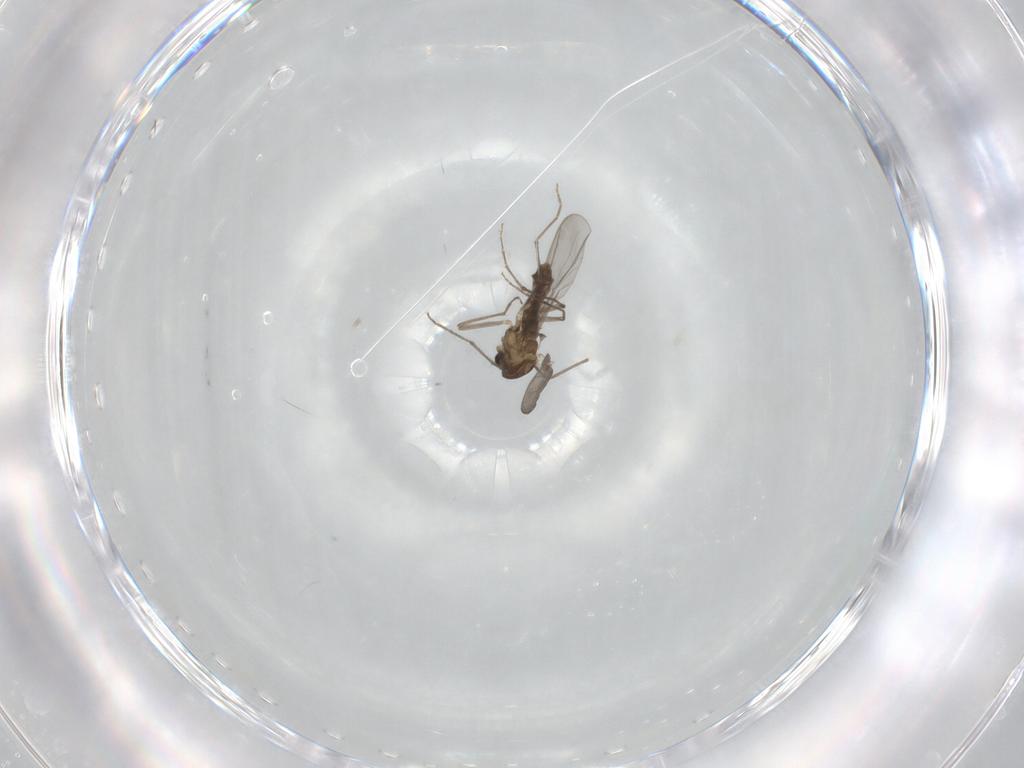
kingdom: Animalia
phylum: Arthropoda
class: Insecta
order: Diptera
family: Chironomidae
